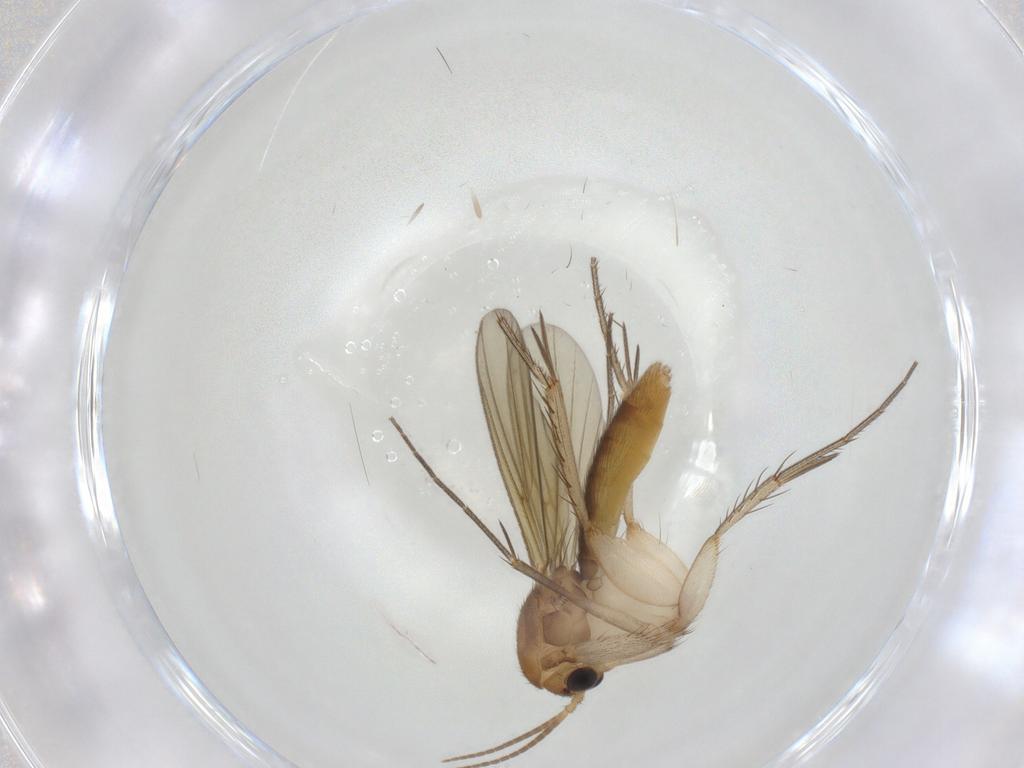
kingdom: Animalia
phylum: Arthropoda
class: Insecta
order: Diptera
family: Mycetophilidae
